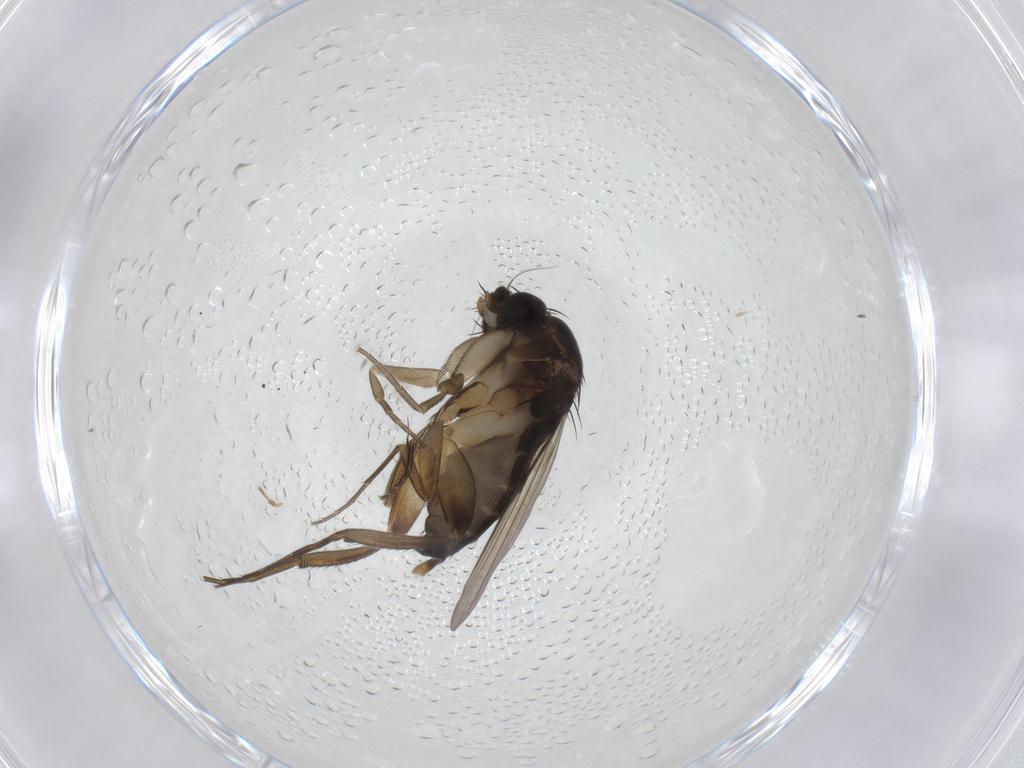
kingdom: Animalia
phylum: Arthropoda
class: Insecta
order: Diptera
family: Phoridae
